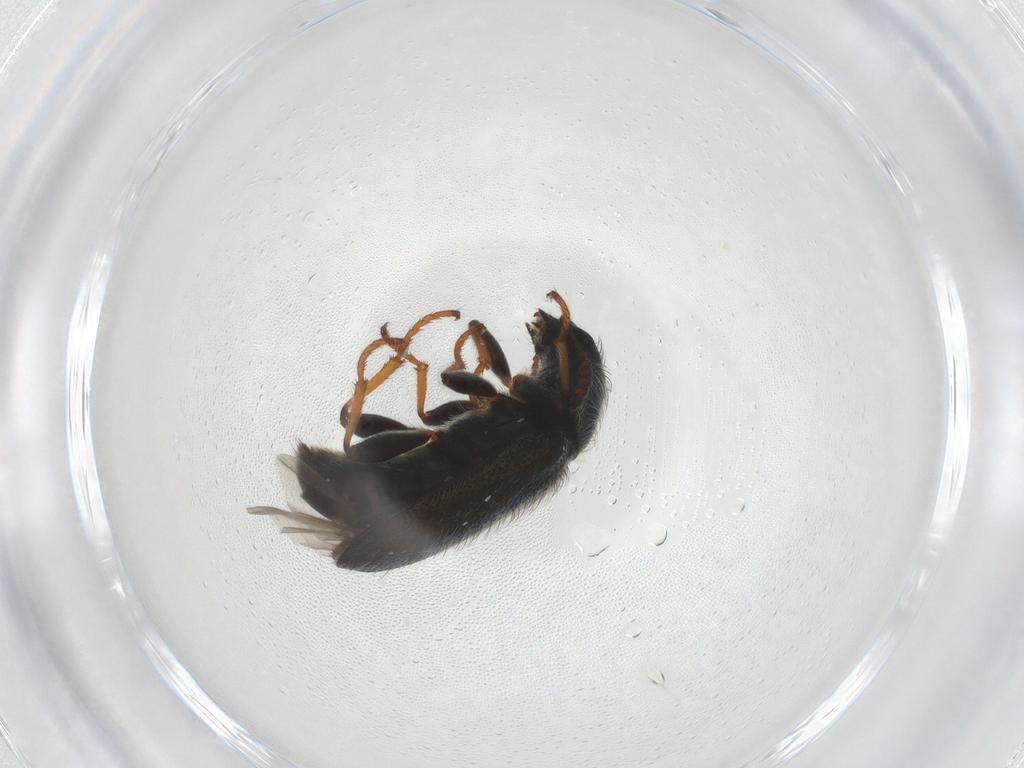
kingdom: Animalia
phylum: Arthropoda
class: Insecta
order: Coleoptera
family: Melyridae
